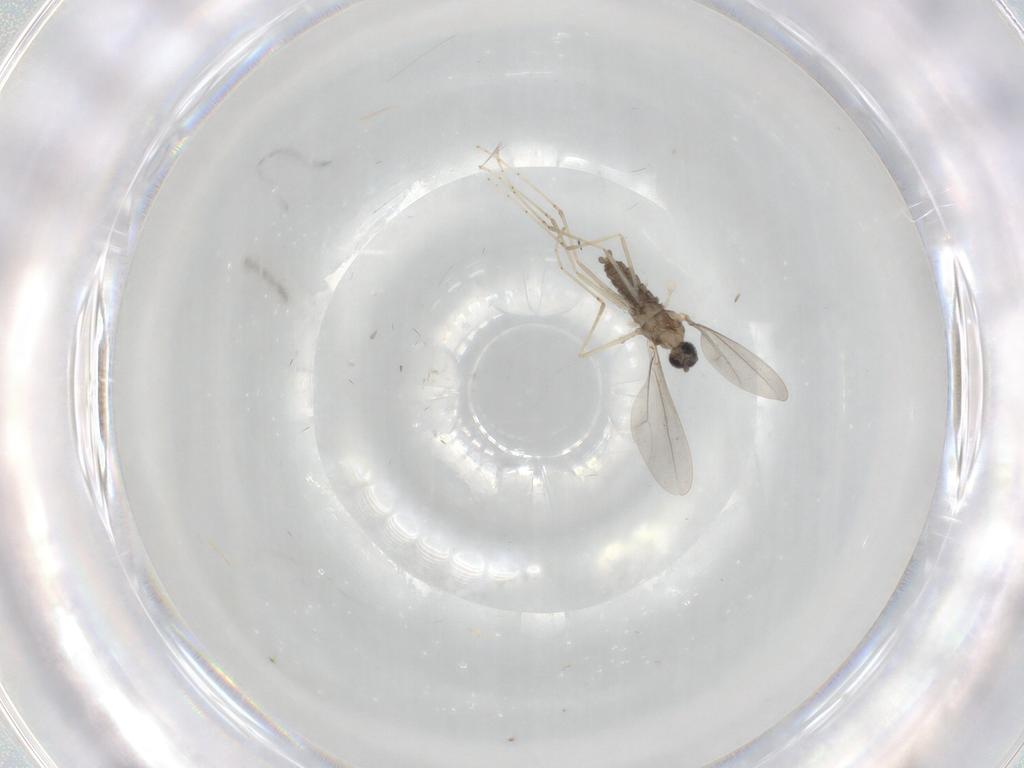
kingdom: Animalia
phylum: Arthropoda
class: Insecta
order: Diptera
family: Cecidomyiidae
